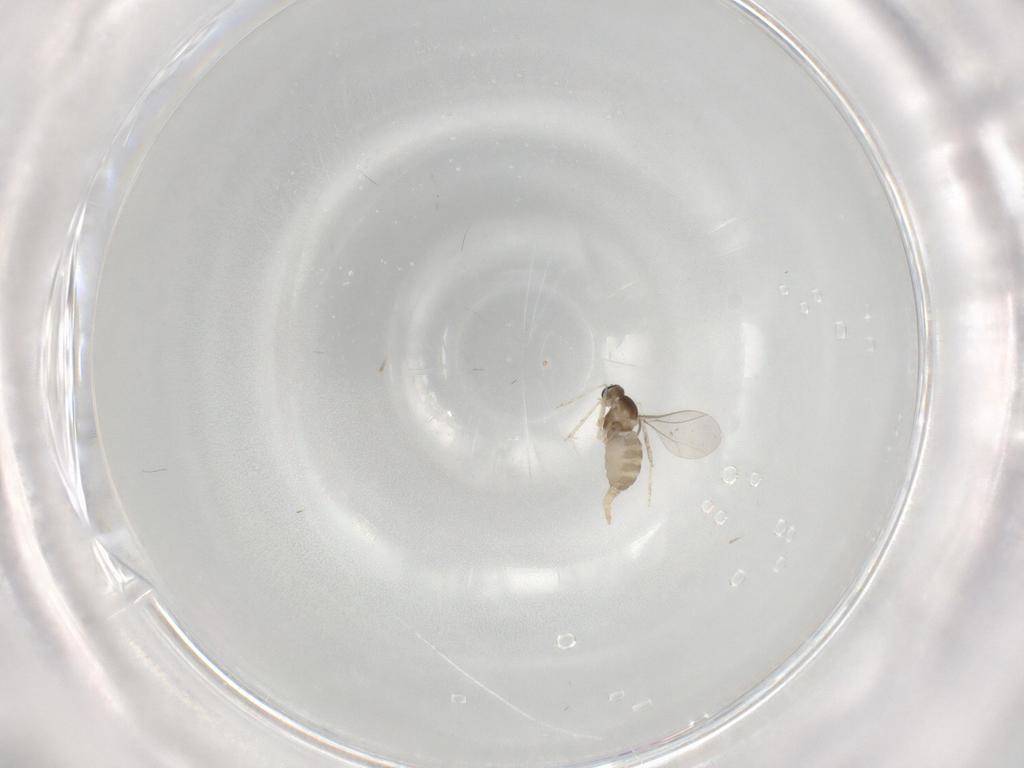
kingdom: Animalia
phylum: Arthropoda
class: Insecta
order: Diptera
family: Cecidomyiidae
